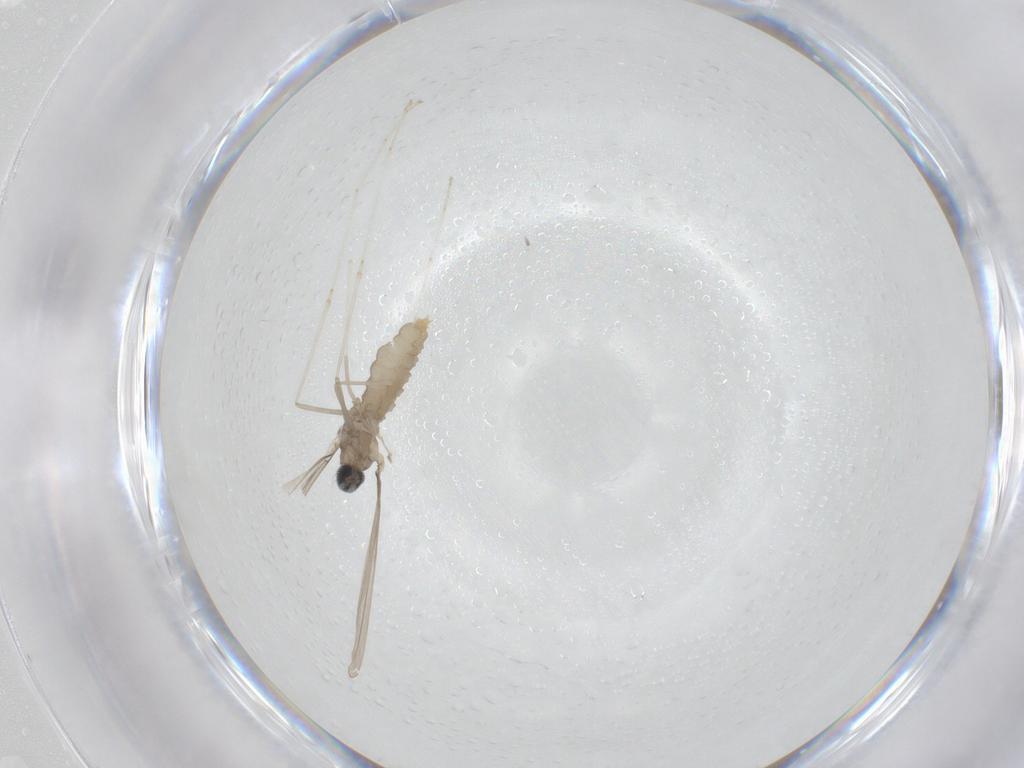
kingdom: Animalia
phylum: Arthropoda
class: Insecta
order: Diptera
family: Cecidomyiidae
